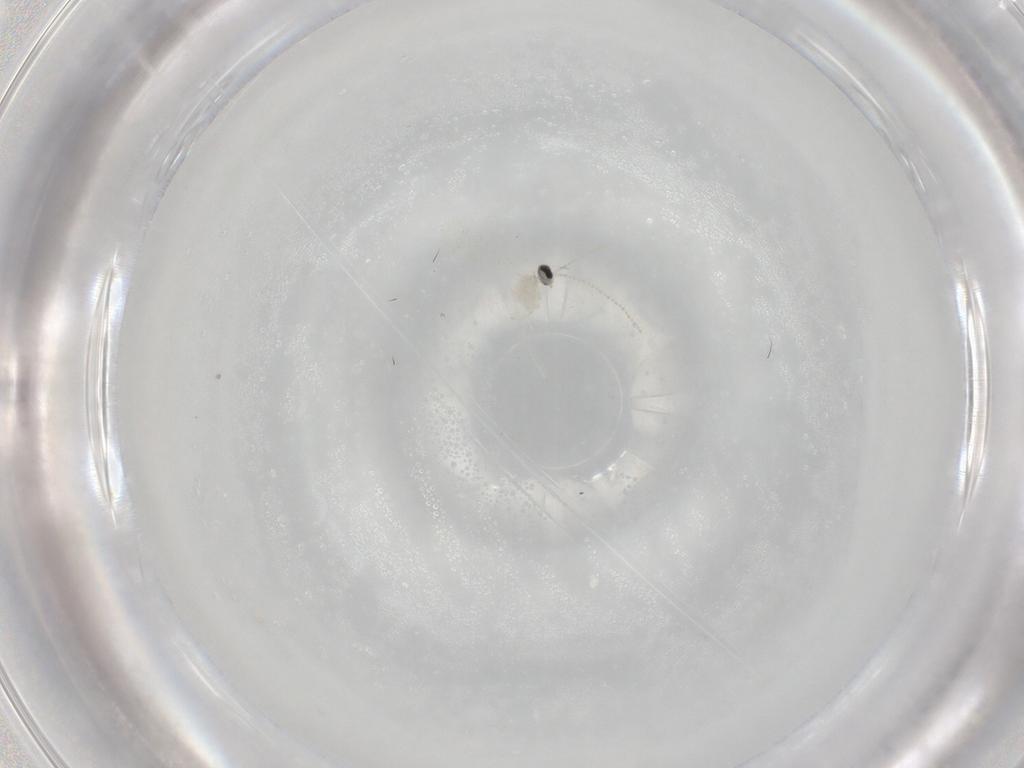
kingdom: Animalia
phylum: Arthropoda
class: Insecta
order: Diptera
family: Cecidomyiidae
